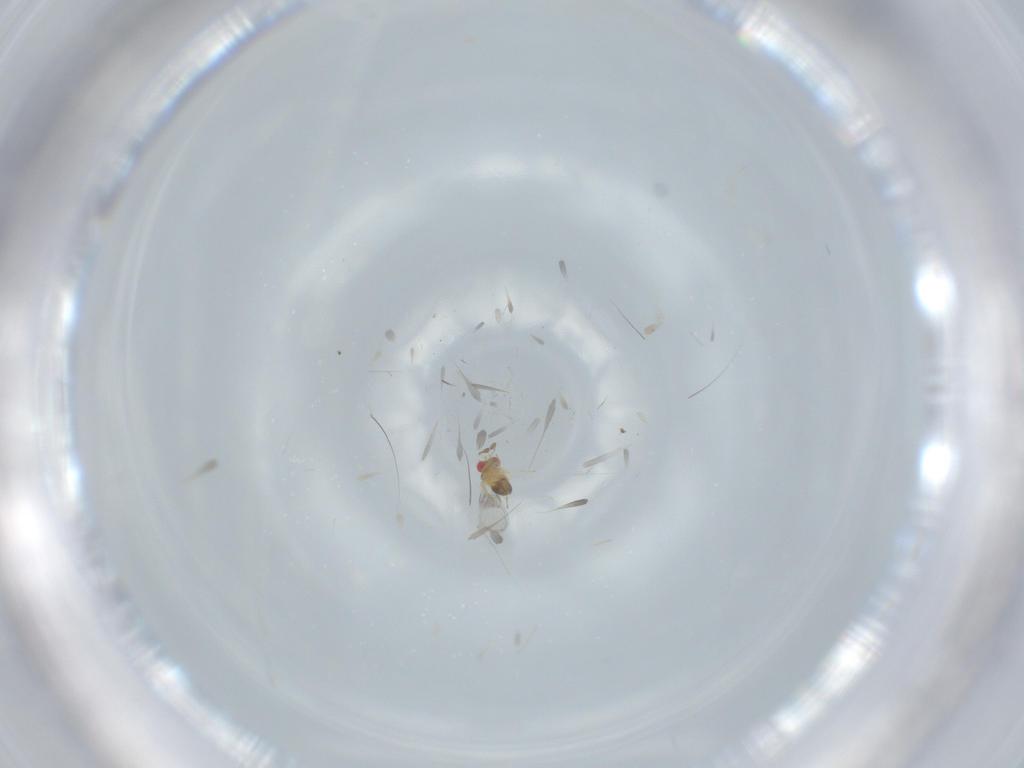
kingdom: Animalia
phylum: Arthropoda
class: Insecta
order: Hymenoptera
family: Trichogrammatidae
